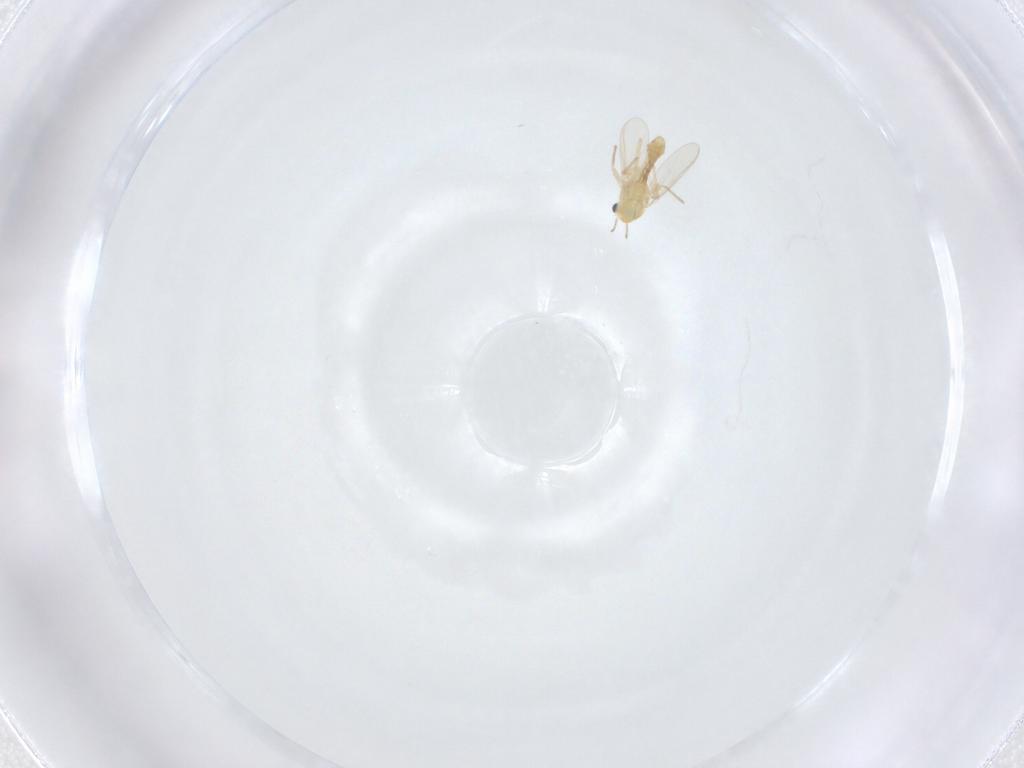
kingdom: Animalia
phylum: Arthropoda
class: Insecta
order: Diptera
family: Chironomidae
